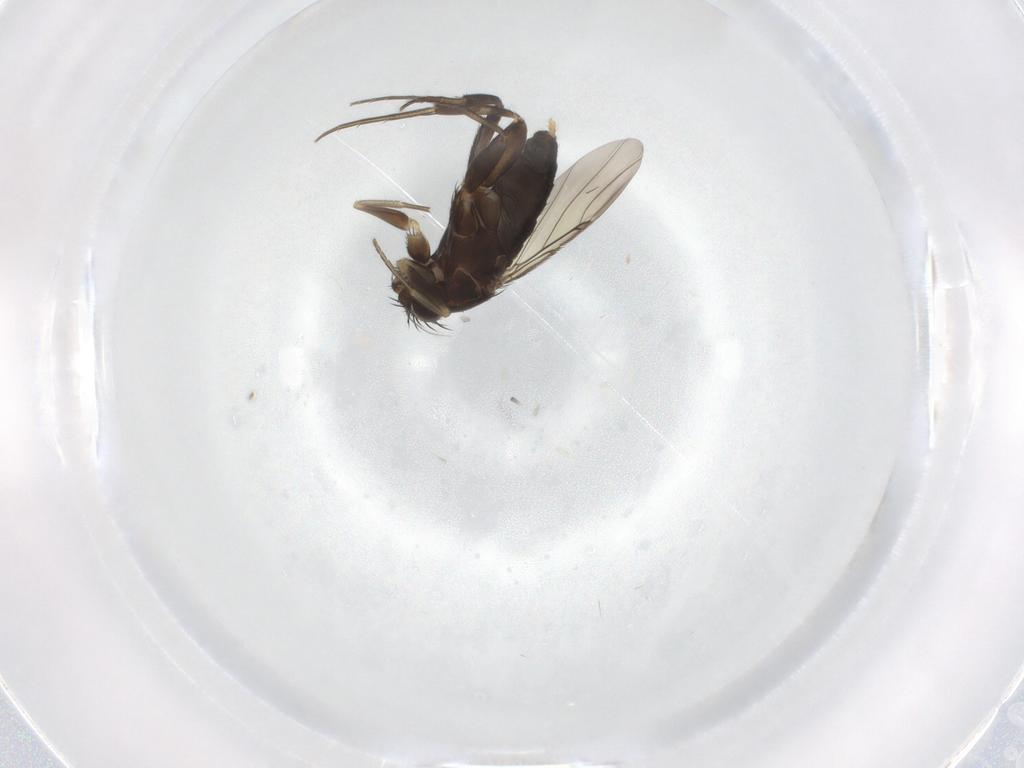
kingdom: Animalia
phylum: Arthropoda
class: Insecta
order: Diptera
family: Phoridae
